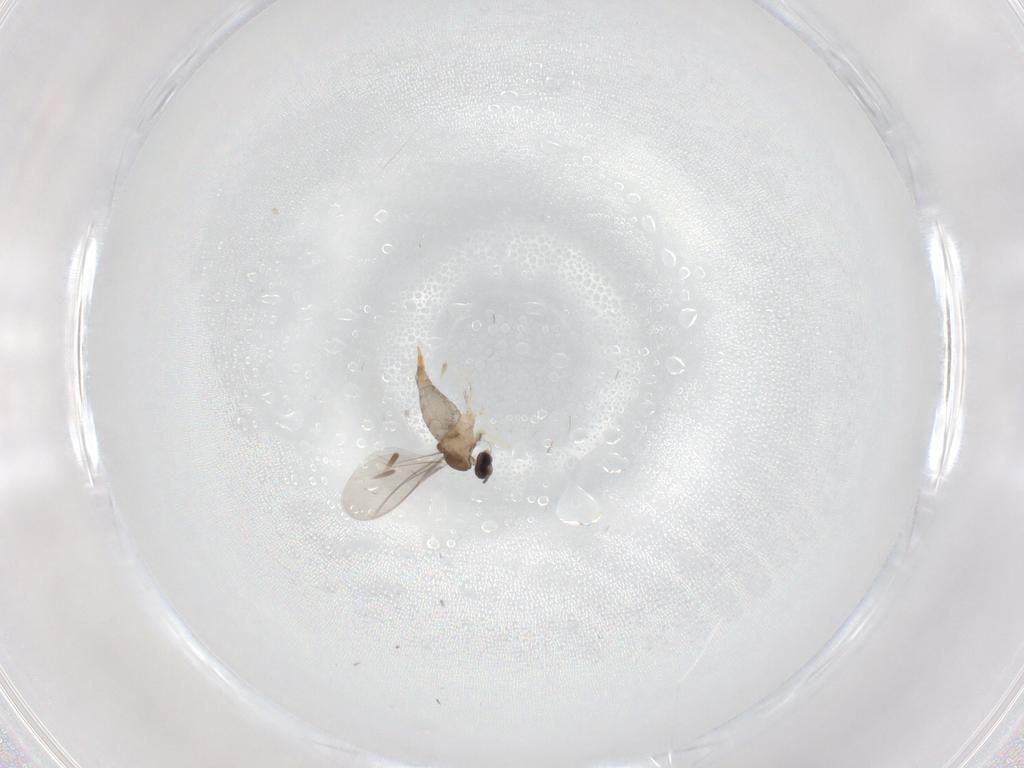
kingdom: Animalia
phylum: Arthropoda
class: Insecta
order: Diptera
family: Cecidomyiidae
